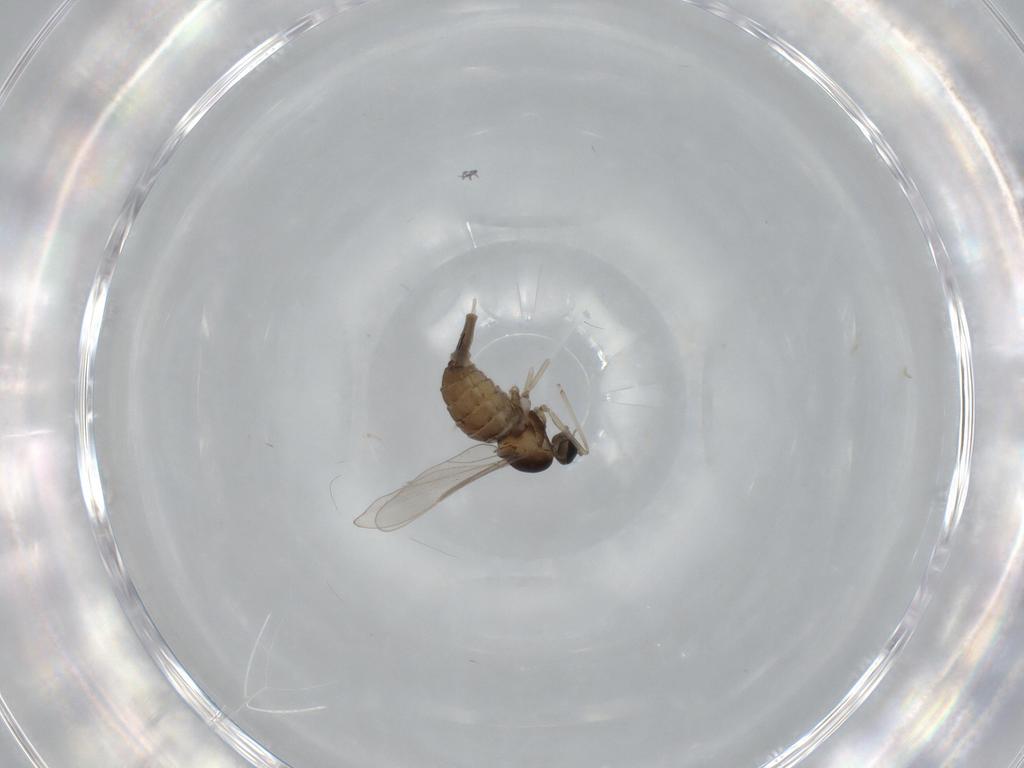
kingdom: Animalia
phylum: Arthropoda
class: Insecta
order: Diptera
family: Cecidomyiidae
